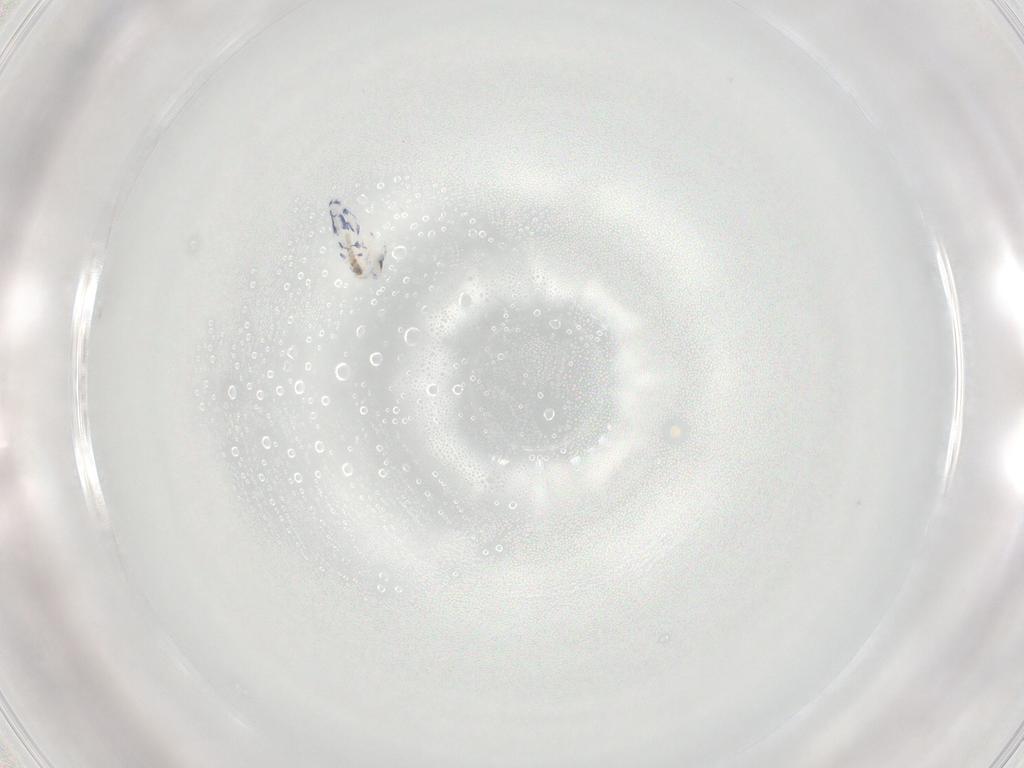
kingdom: Animalia
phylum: Arthropoda
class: Collembola
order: Entomobryomorpha
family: Entomobryidae
